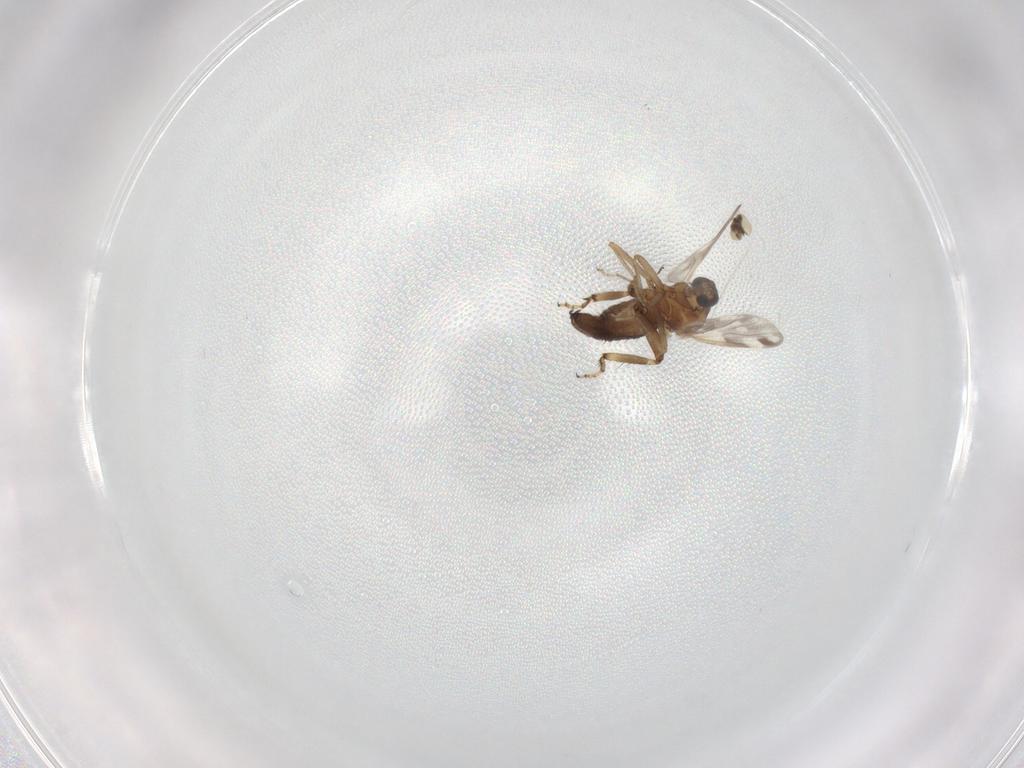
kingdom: Animalia
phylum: Arthropoda
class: Insecta
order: Diptera
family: Ceratopogonidae
